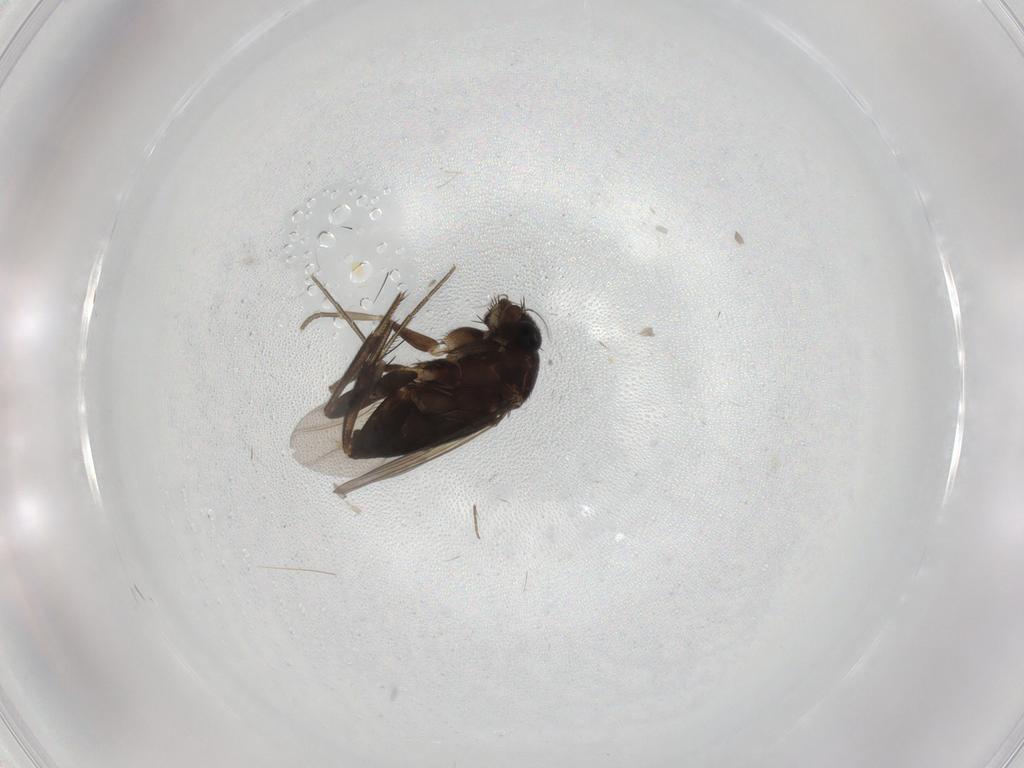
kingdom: Animalia
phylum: Arthropoda
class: Insecta
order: Diptera
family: Phoridae
